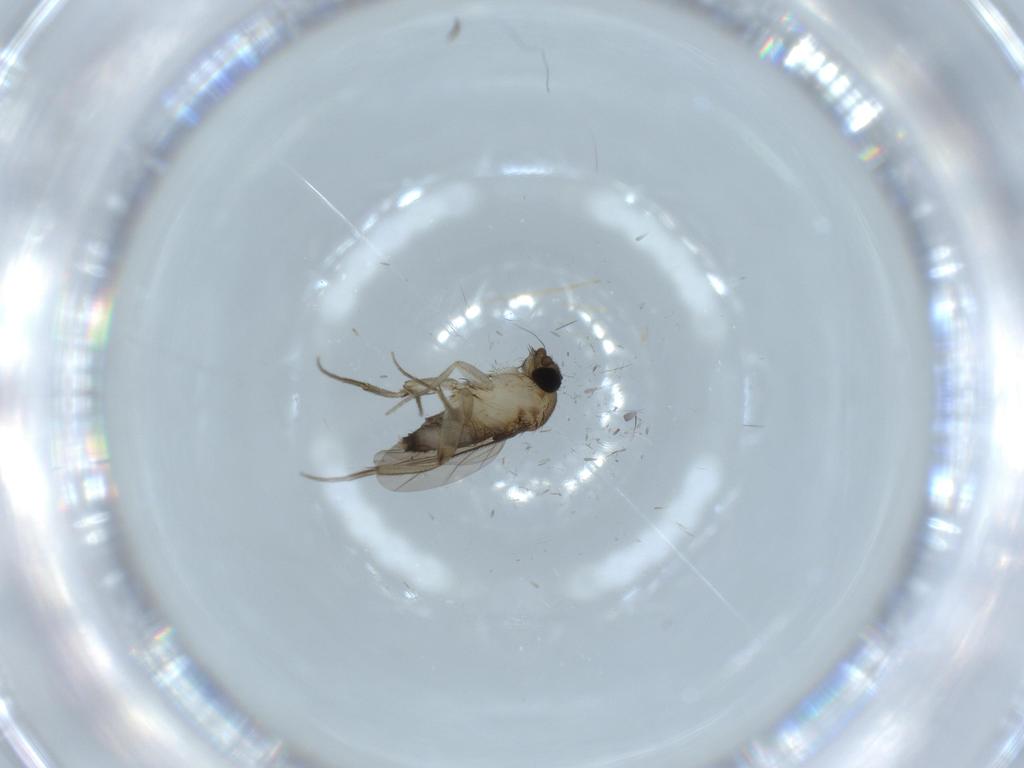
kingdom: Animalia
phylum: Arthropoda
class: Insecta
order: Diptera
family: Phoridae
